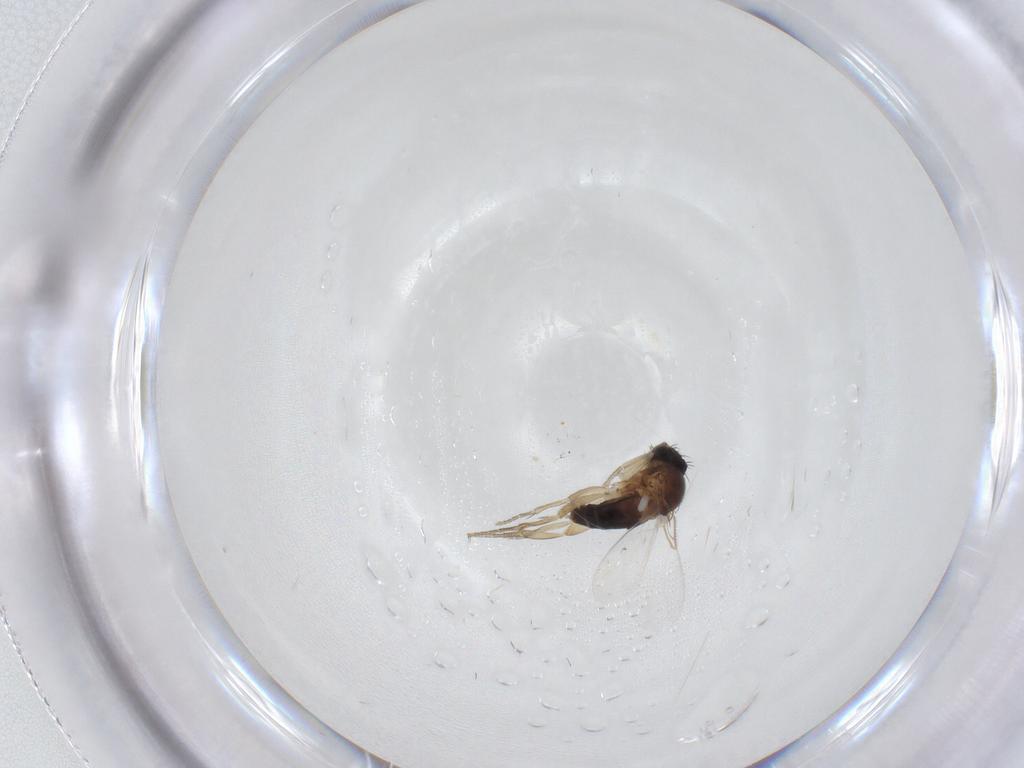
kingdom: Animalia
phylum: Arthropoda
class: Insecta
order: Diptera
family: Phoridae
